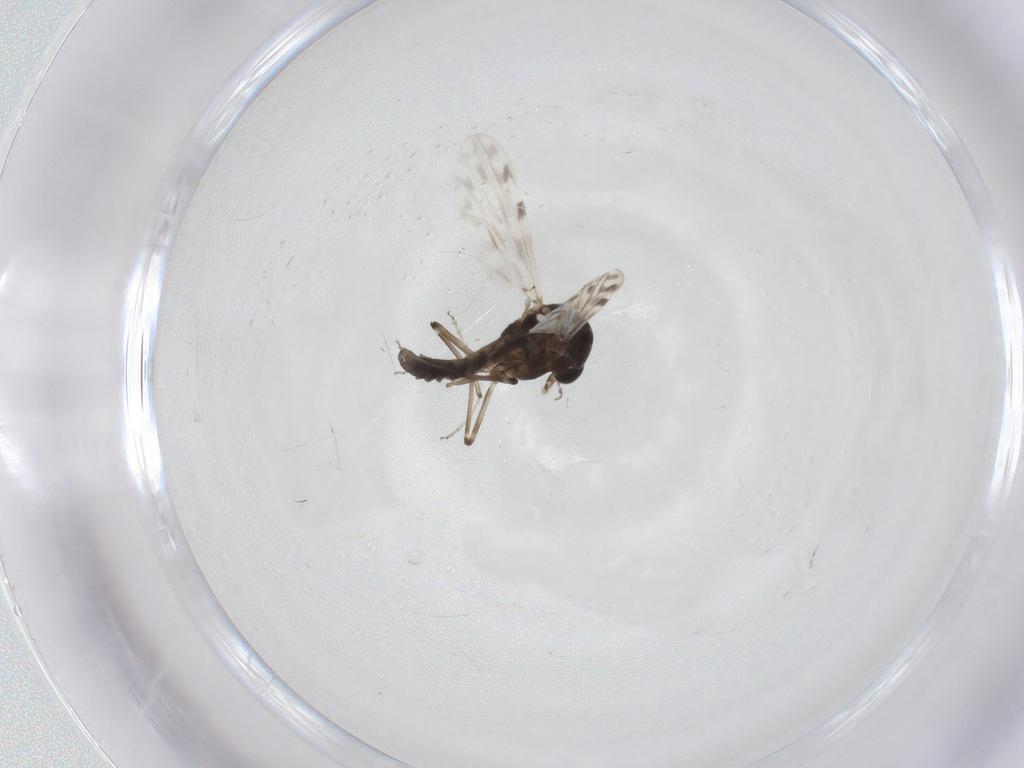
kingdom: Animalia
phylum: Arthropoda
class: Insecta
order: Diptera
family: Ceratopogonidae
